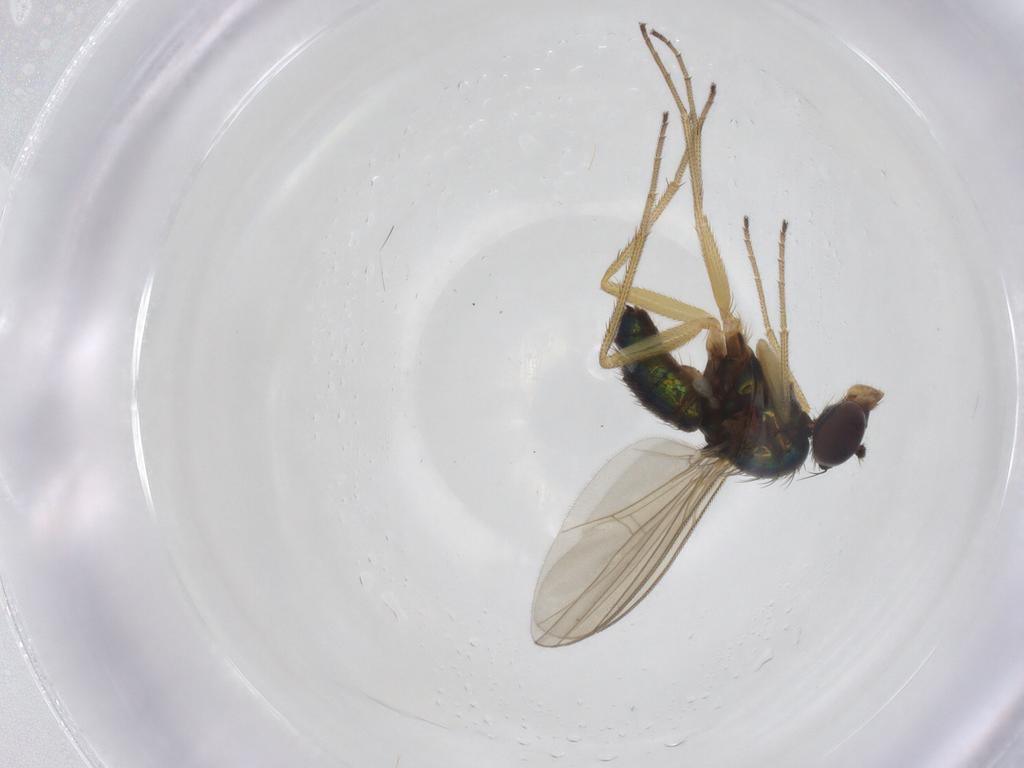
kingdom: Animalia
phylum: Arthropoda
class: Insecta
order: Diptera
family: Dolichopodidae
